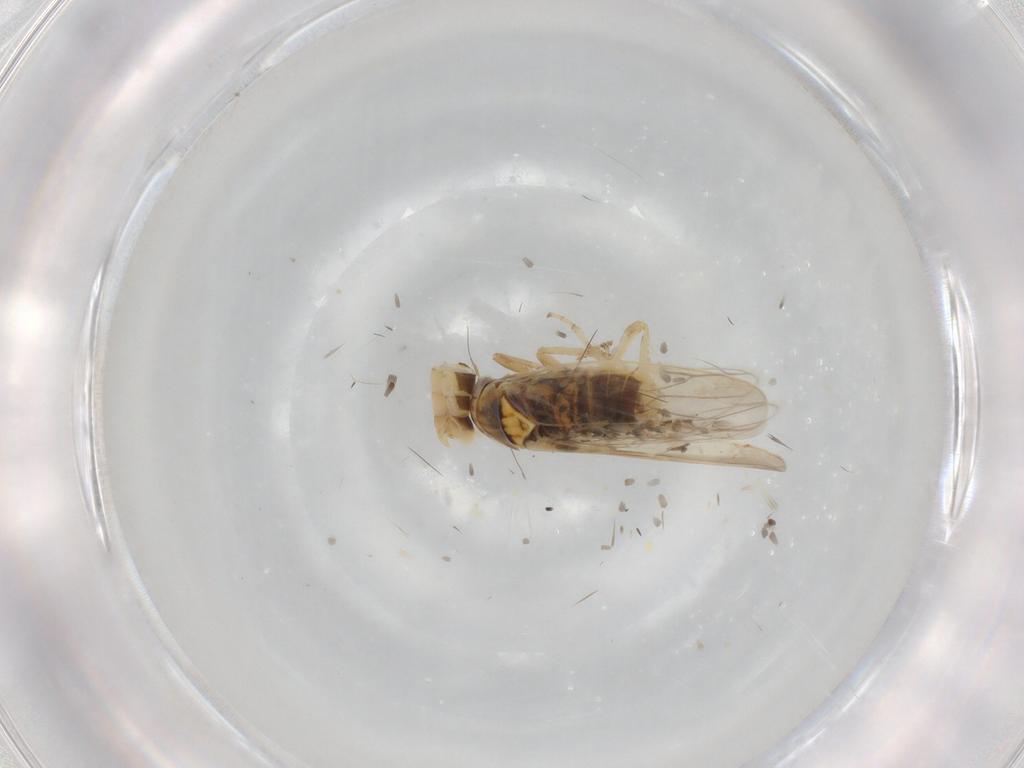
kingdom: Animalia
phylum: Arthropoda
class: Insecta
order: Hemiptera
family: Cicadellidae
